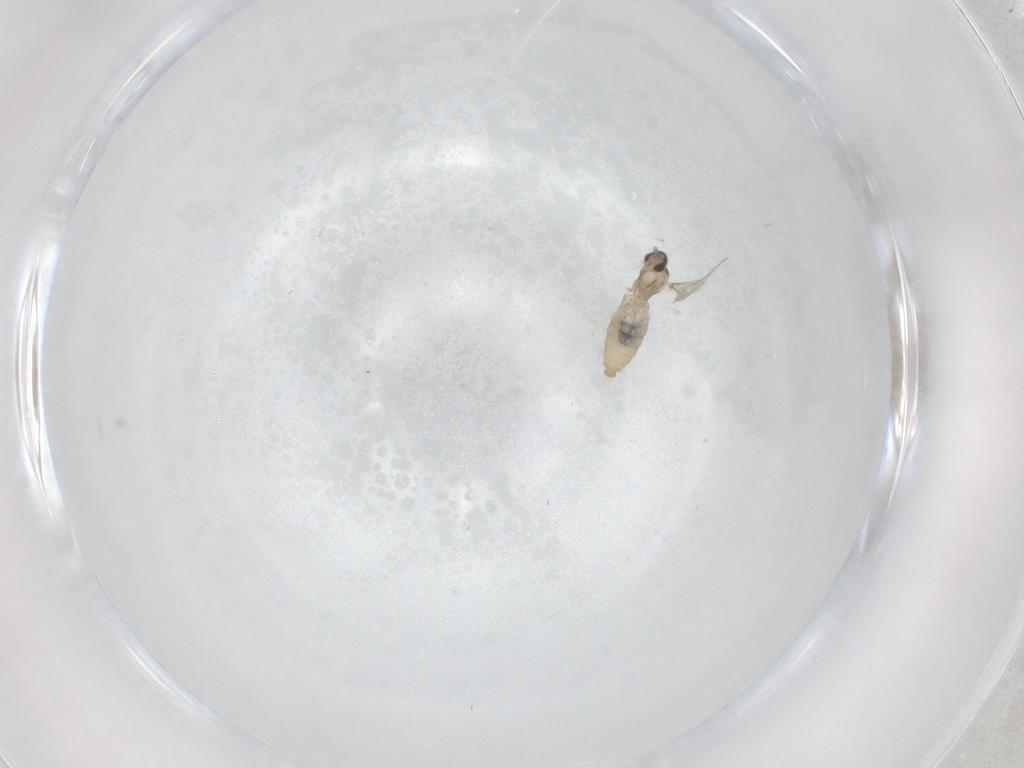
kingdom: Animalia
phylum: Arthropoda
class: Insecta
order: Diptera
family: Cecidomyiidae
